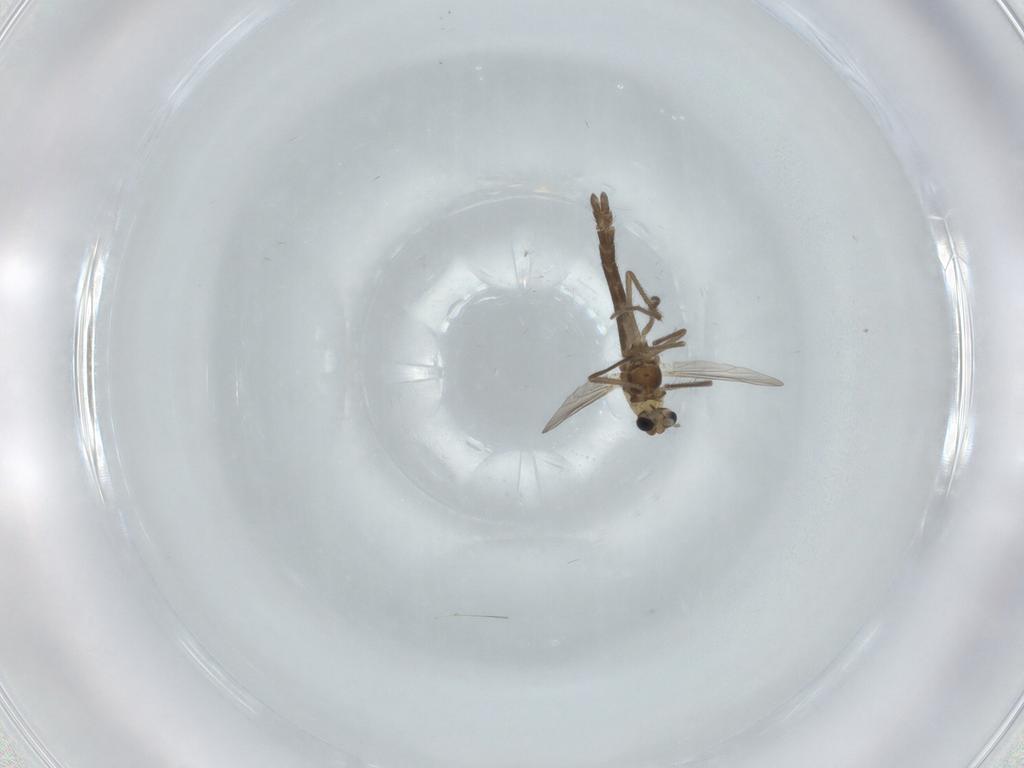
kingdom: Animalia
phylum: Arthropoda
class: Insecta
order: Diptera
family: Chironomidae
